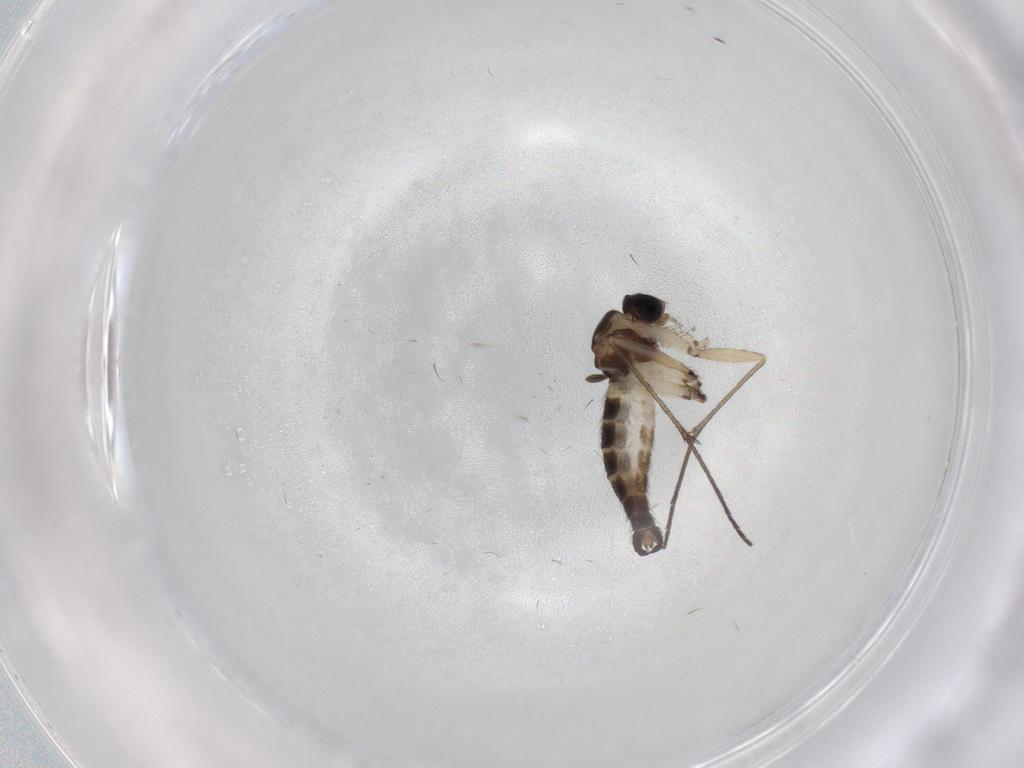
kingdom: Animalia
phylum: Arthropoda
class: Insecta
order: Diptera
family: Sciaridae
